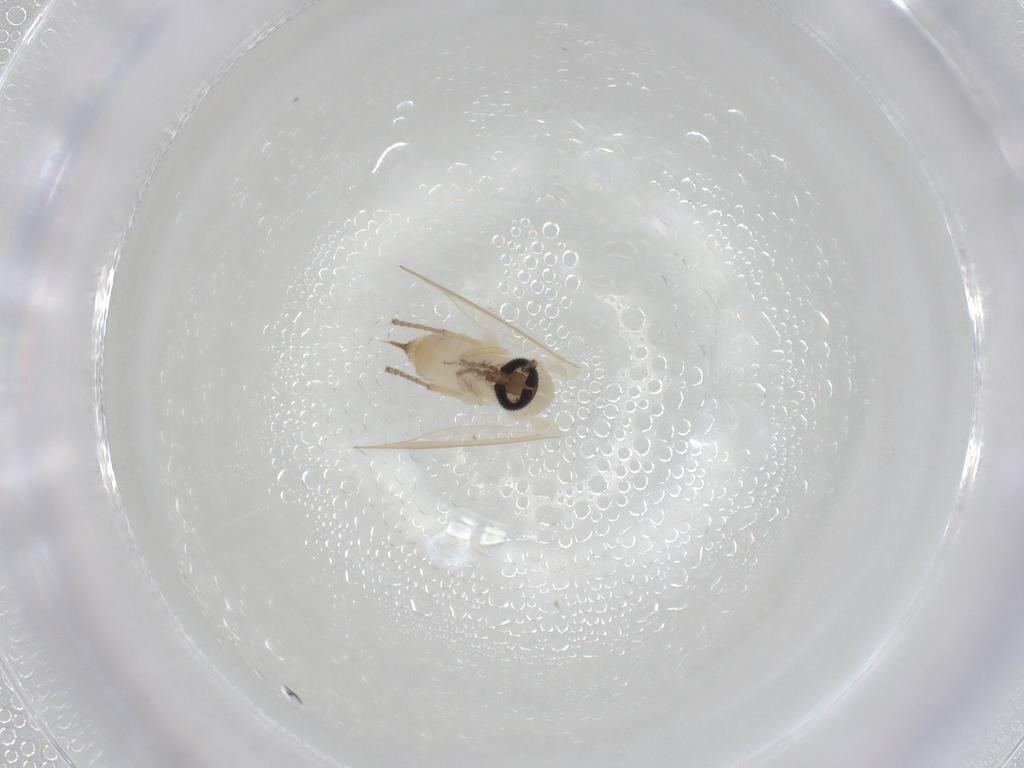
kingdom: Animalia
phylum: Arthropoda
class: Insecta
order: Diptera
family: Psychodidae
